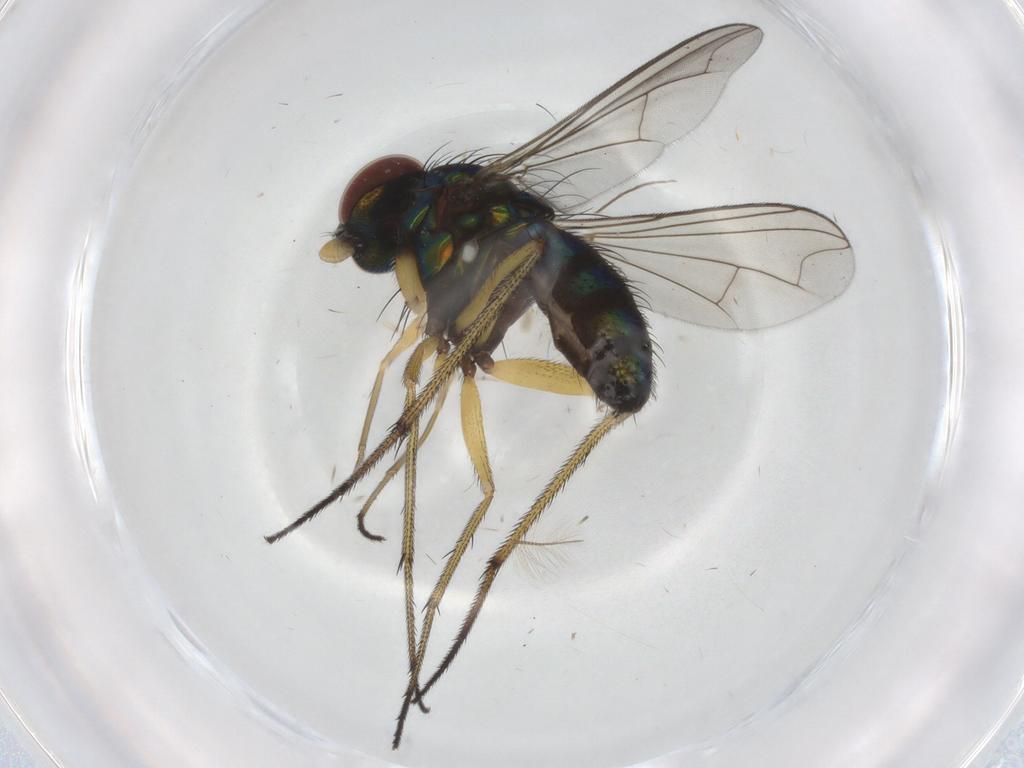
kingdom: Animalia
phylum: Arthropoda
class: Insecta
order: Diptera
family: Dolichopodidae
